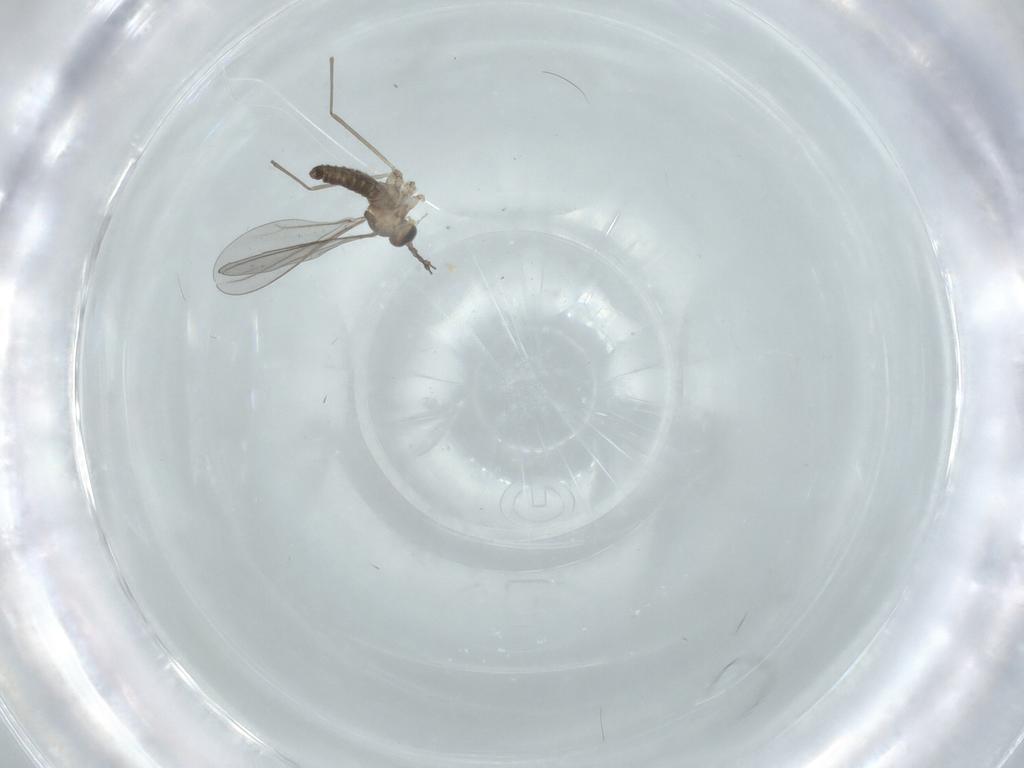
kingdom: Animalia
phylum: Arthropoda
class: Insecta
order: Diptera
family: Cecidomyiidae
